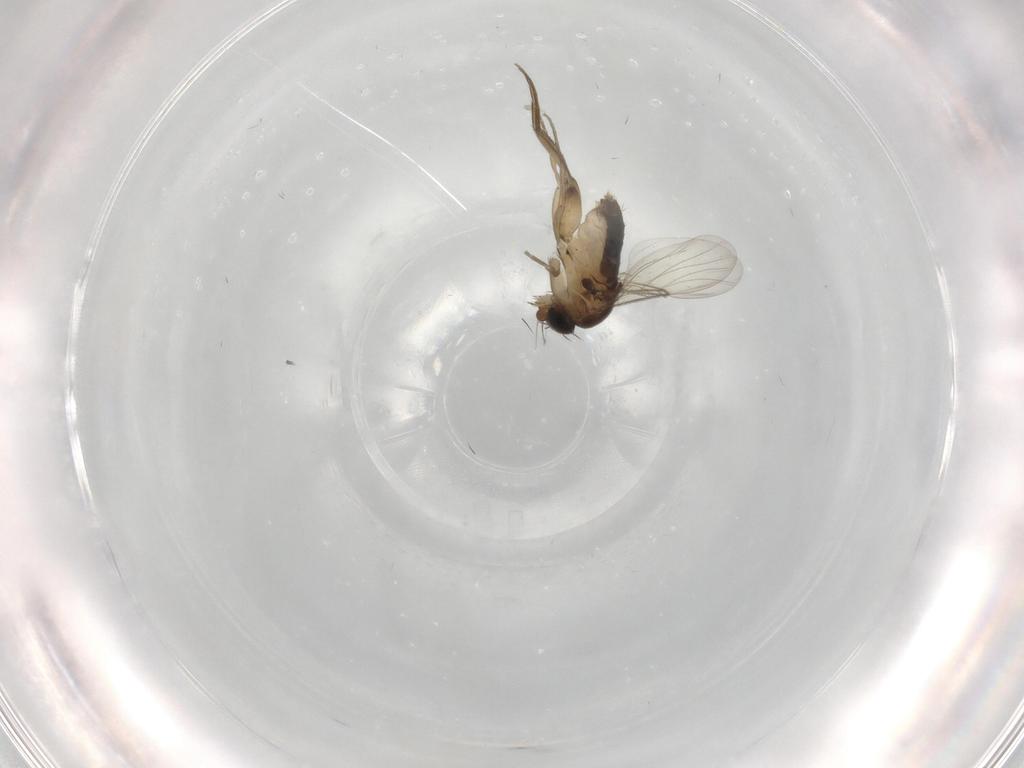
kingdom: Animalia
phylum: Arthropoda
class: Insecta
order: Diptera
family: Phoridae
